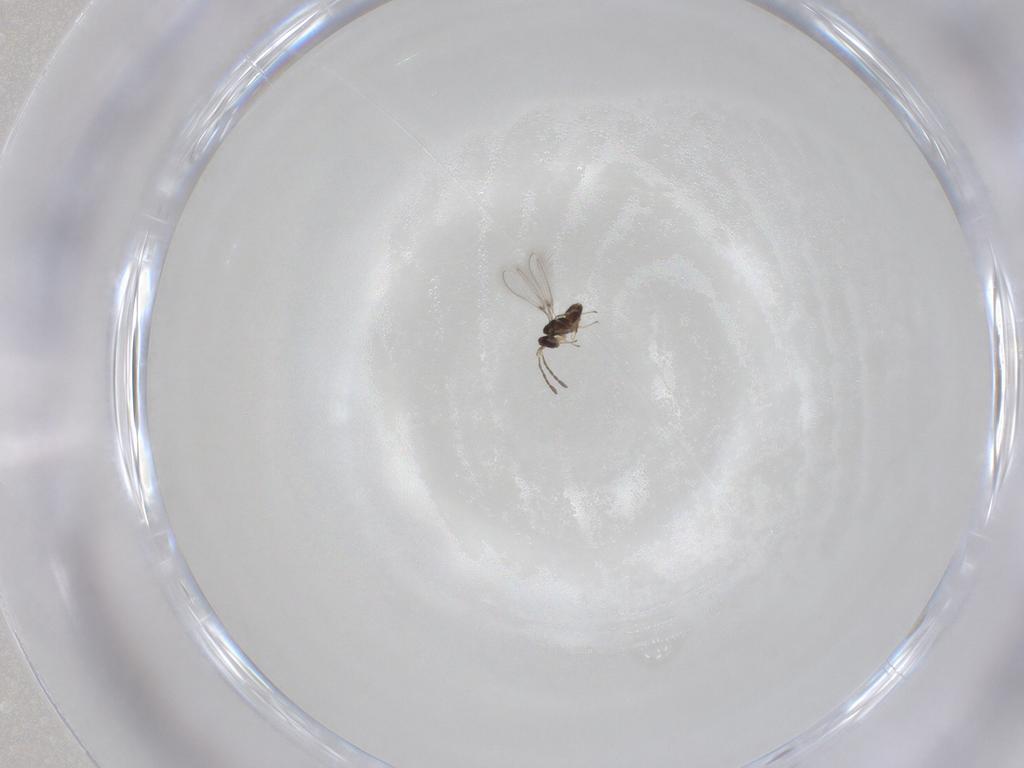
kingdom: Animalia
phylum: Arthropoda
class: Insecta
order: Hymenoptera
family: Mymaridae
